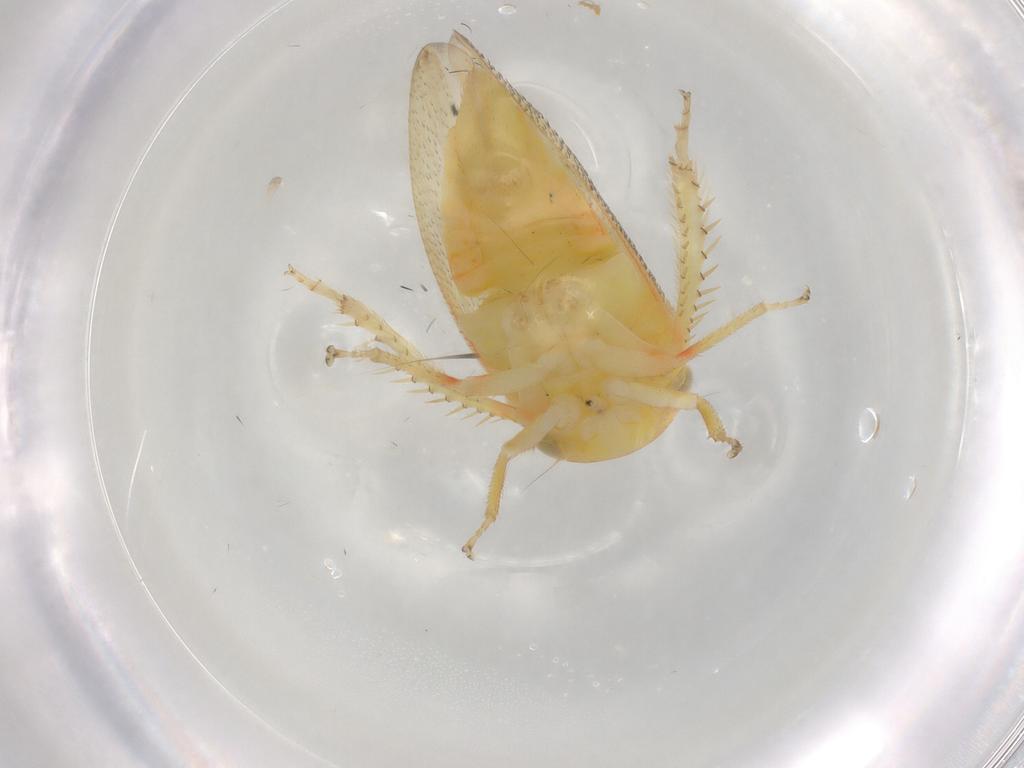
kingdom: Animalia
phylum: Arthropoda
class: Insecta
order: Hemiptera
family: Cicadellidae
